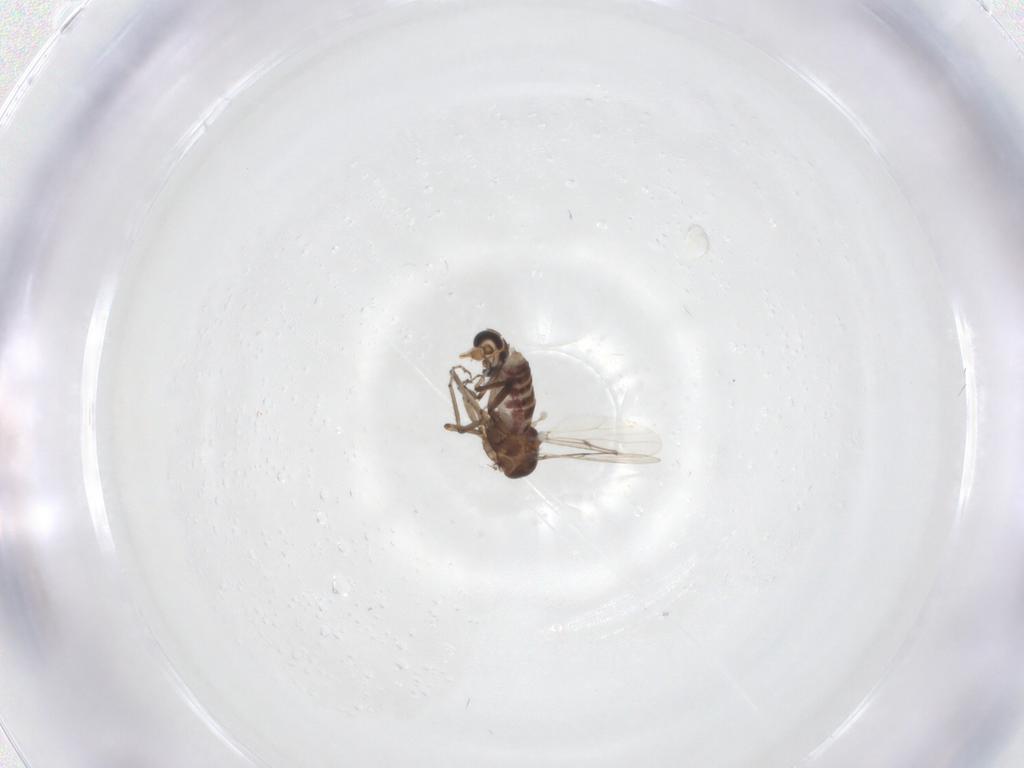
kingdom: Animalia
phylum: Arthropoda
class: Insecta
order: Diptera
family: Ceratopogonidae
